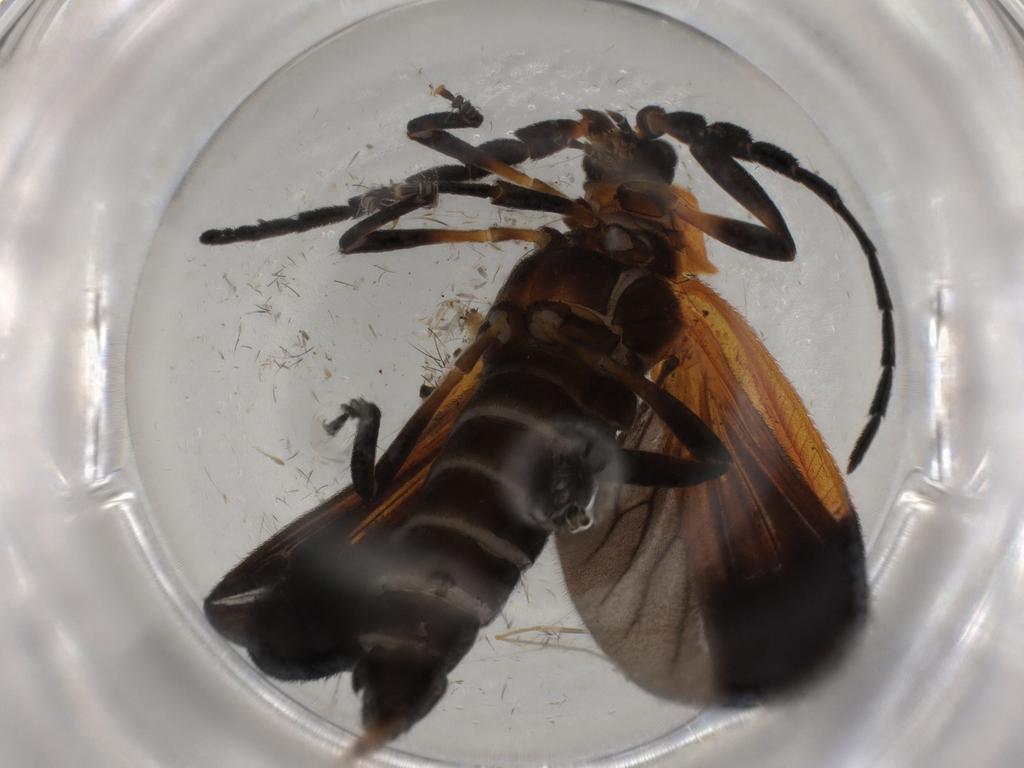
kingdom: Animalia
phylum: Arthropoda
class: Insecta
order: Coleoptera
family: Lycidae
